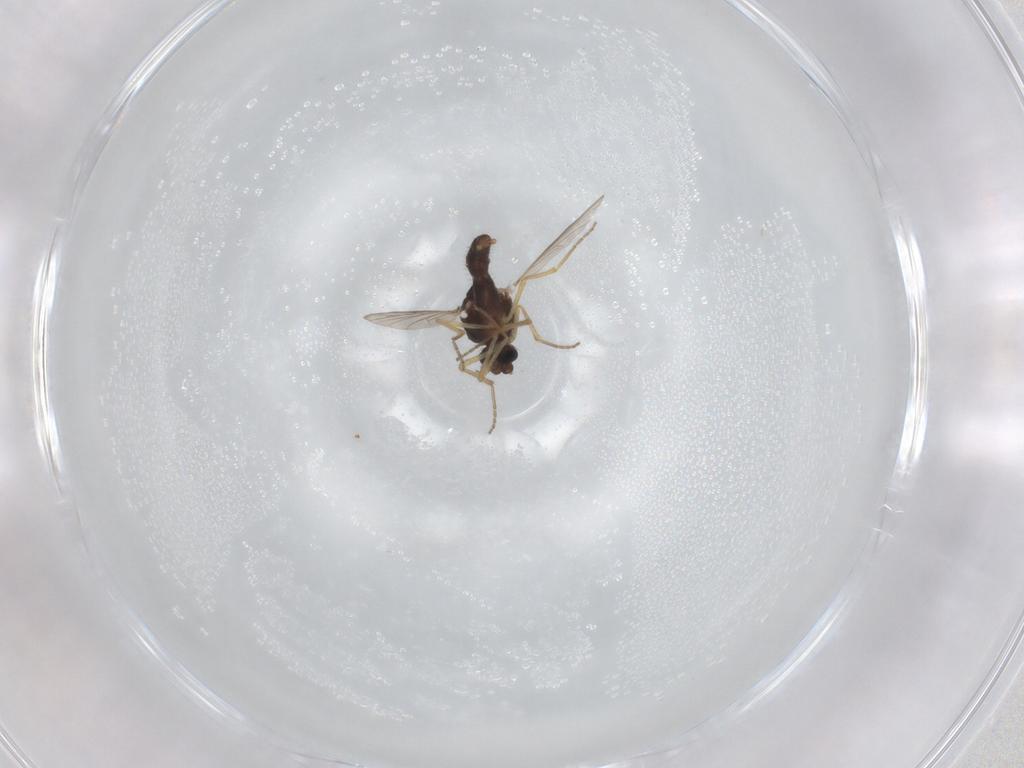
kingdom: Animalia
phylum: Arthropoda
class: Insecta
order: Diptera
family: Ceratopogonidae
